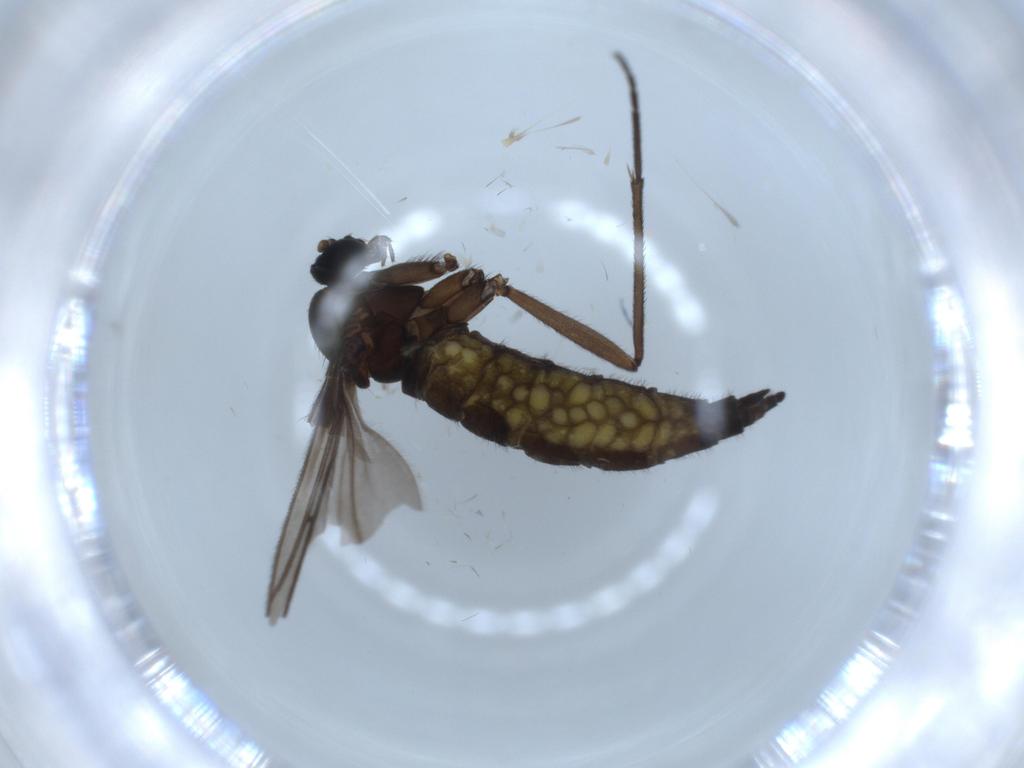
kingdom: Animalia
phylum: Arthropoda
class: Insecta
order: Diptera
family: Sciaridae
